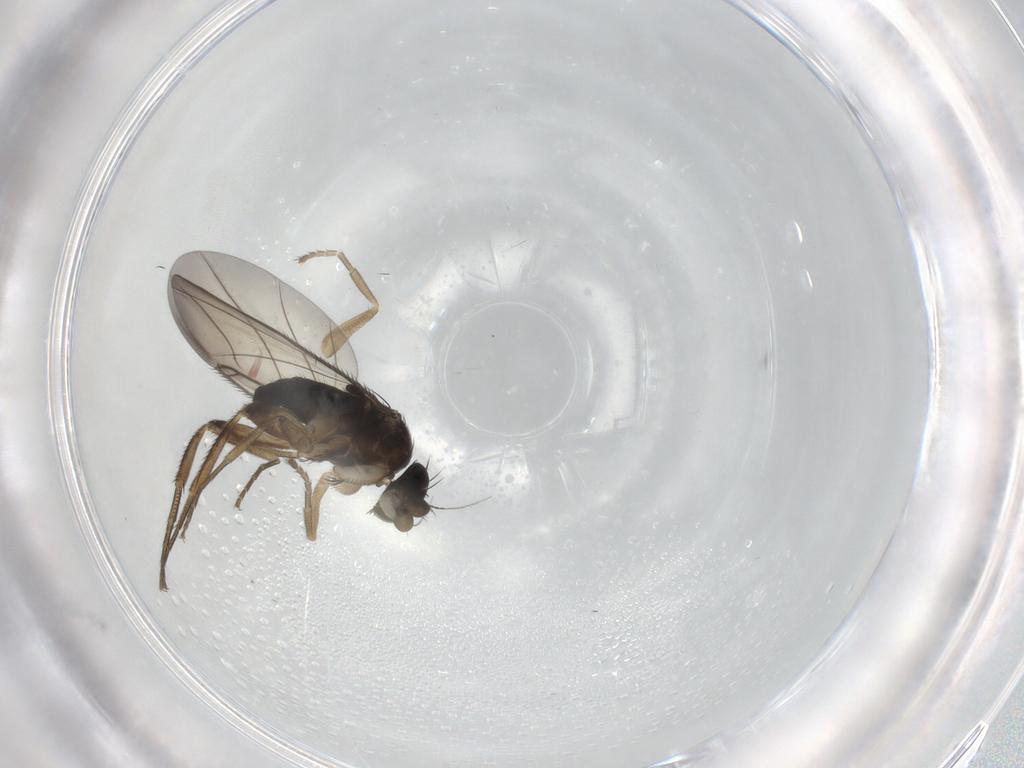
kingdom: Animalia
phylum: Arthropoda
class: Insecta
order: Diptera
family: Phoridae
